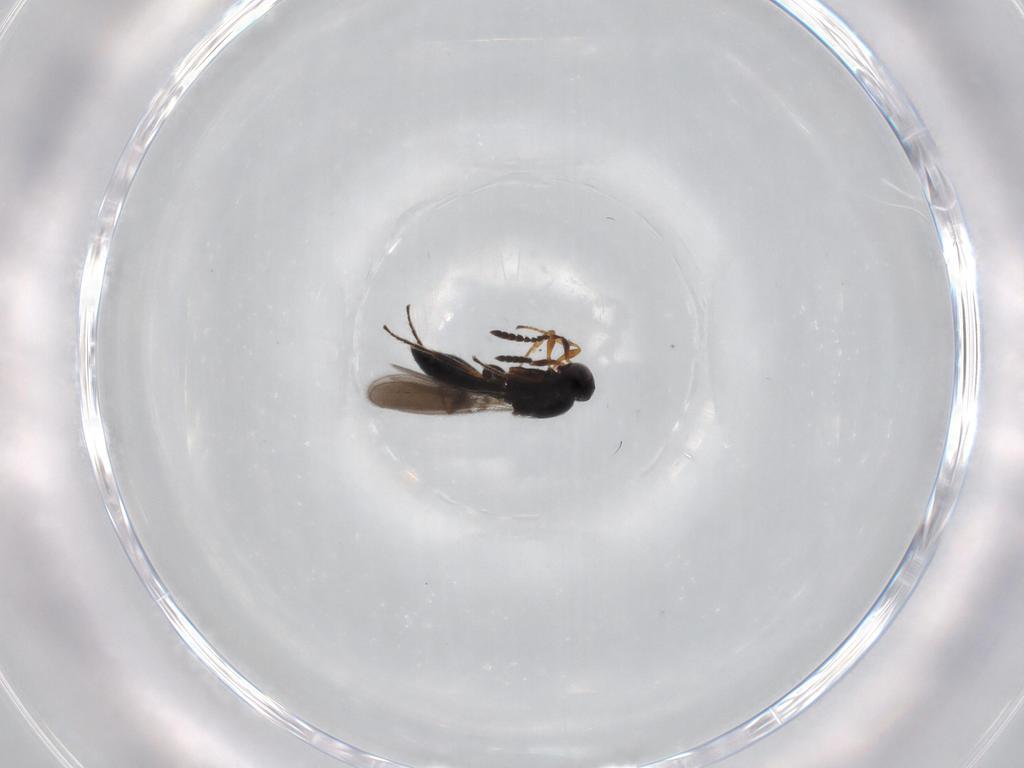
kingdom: Animalia
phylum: Arthropoda
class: Insecta
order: Hymenoptera
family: Platygastridae
